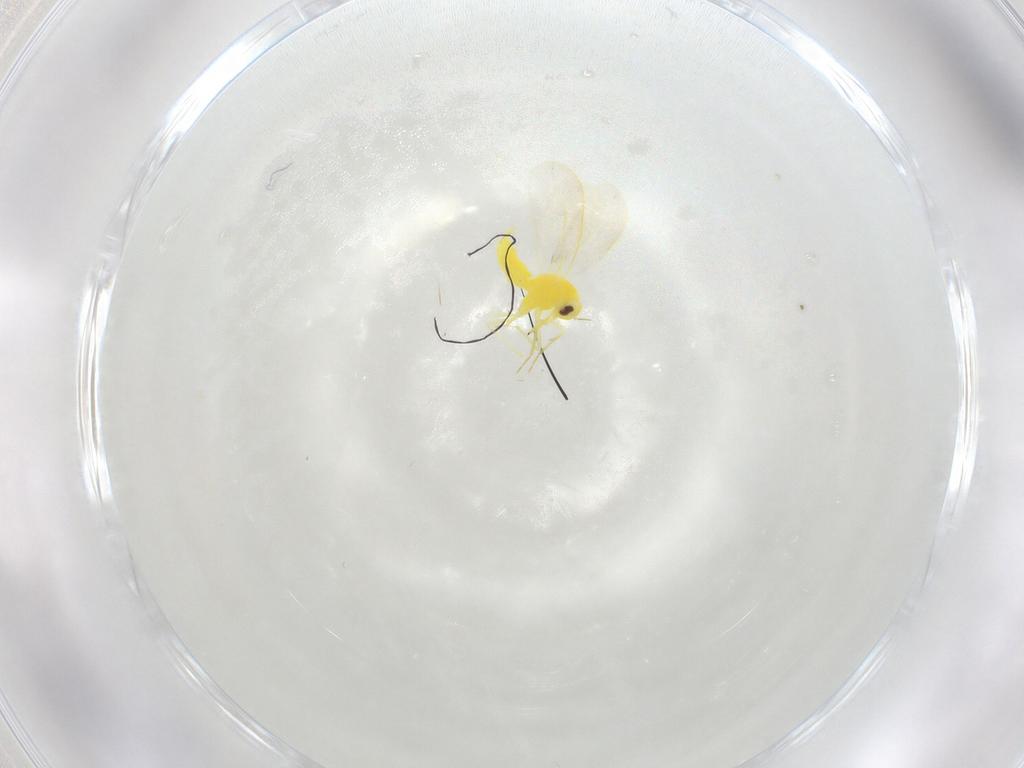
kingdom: Animalia
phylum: Arthropoda
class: Insecta
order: Hemiptera
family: Aleyrodidae
